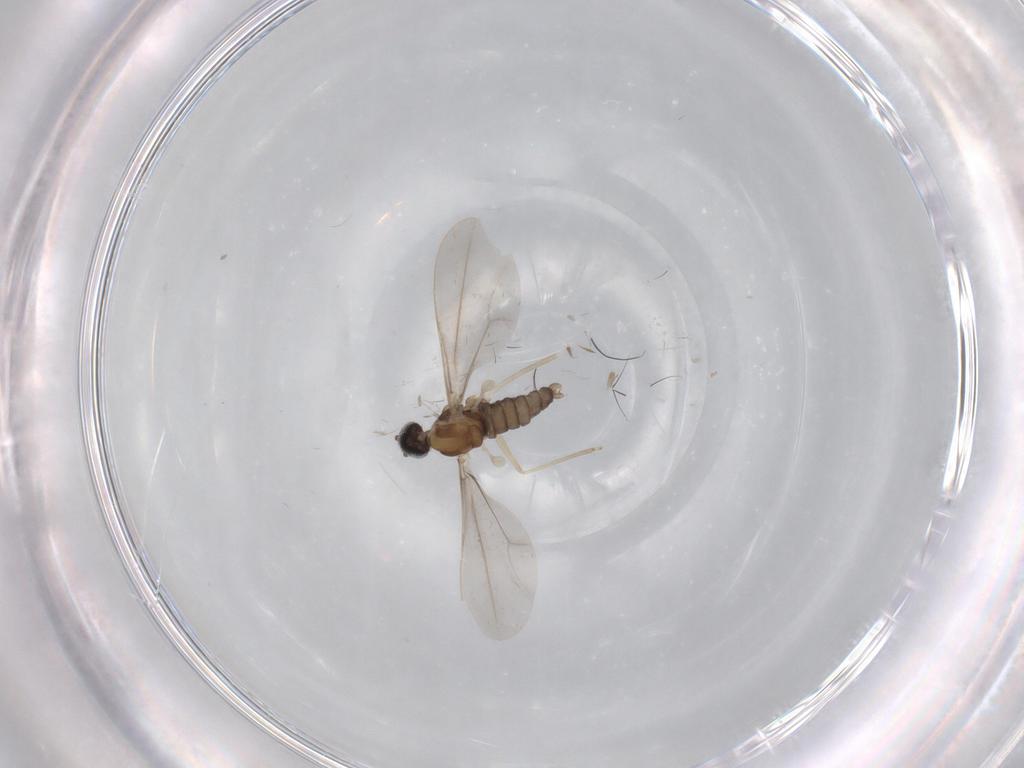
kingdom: Animalia
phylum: Arthropoda
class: Insecta
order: Diptera
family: Cecidomyiidae
